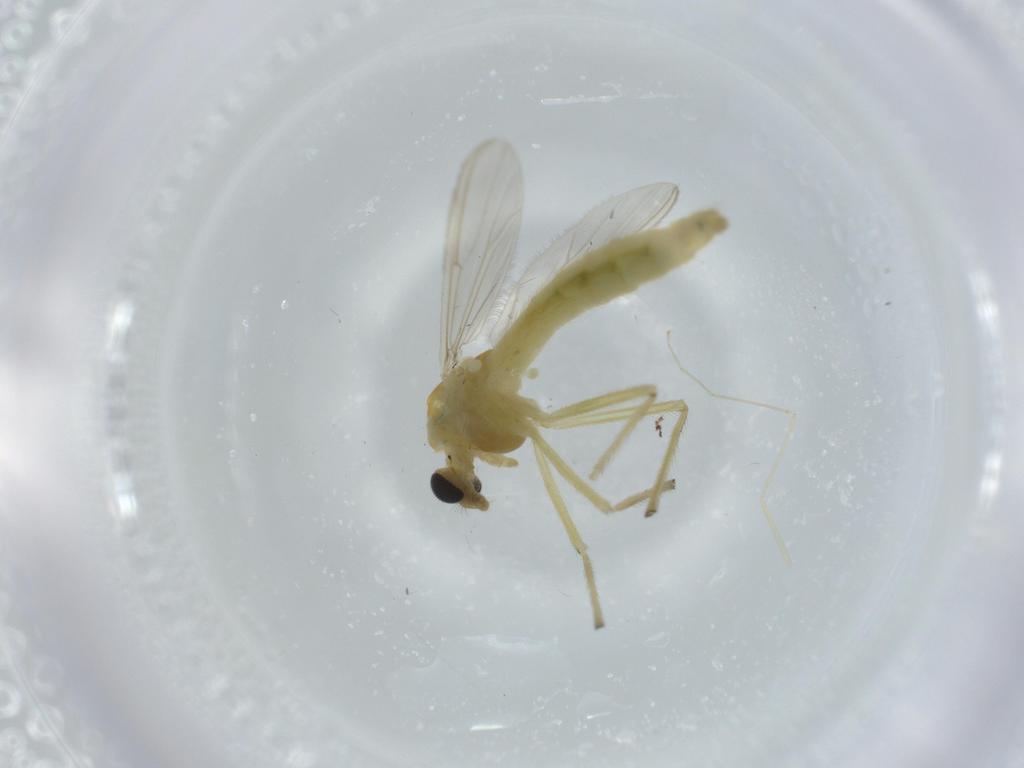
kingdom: Animalia
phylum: Arthropoda
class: Insecta
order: Diptera
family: Chironomidae
